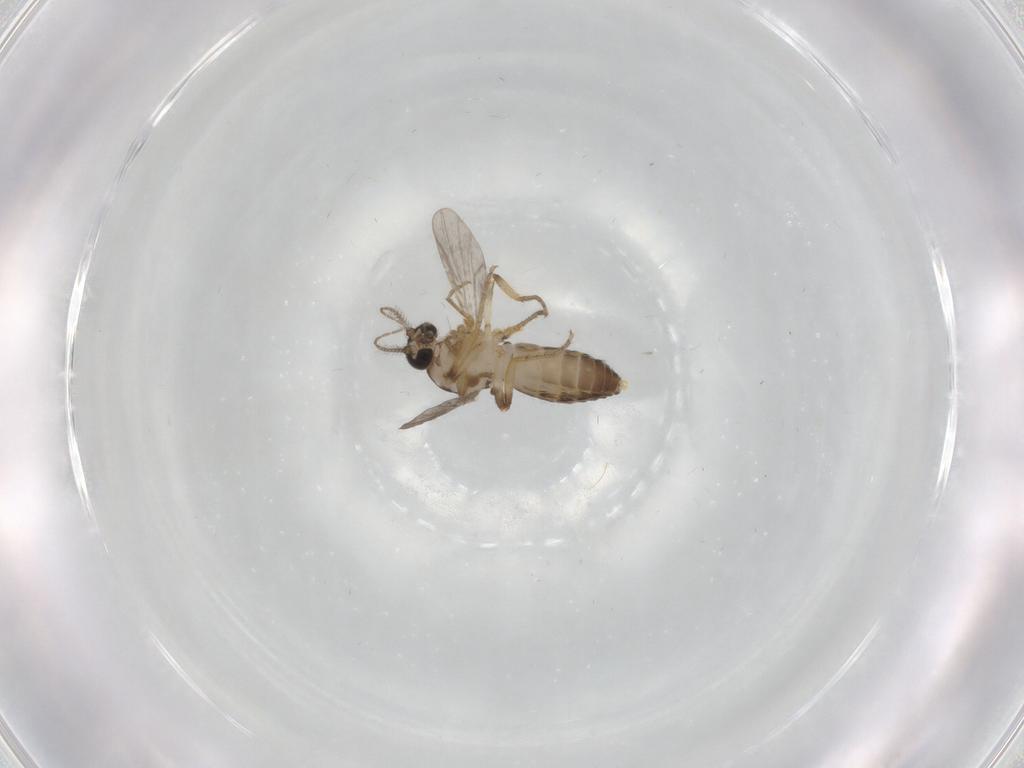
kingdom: Animalia
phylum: Arthropoda
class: Insecta
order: Diptera
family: Ceratopogonidae
